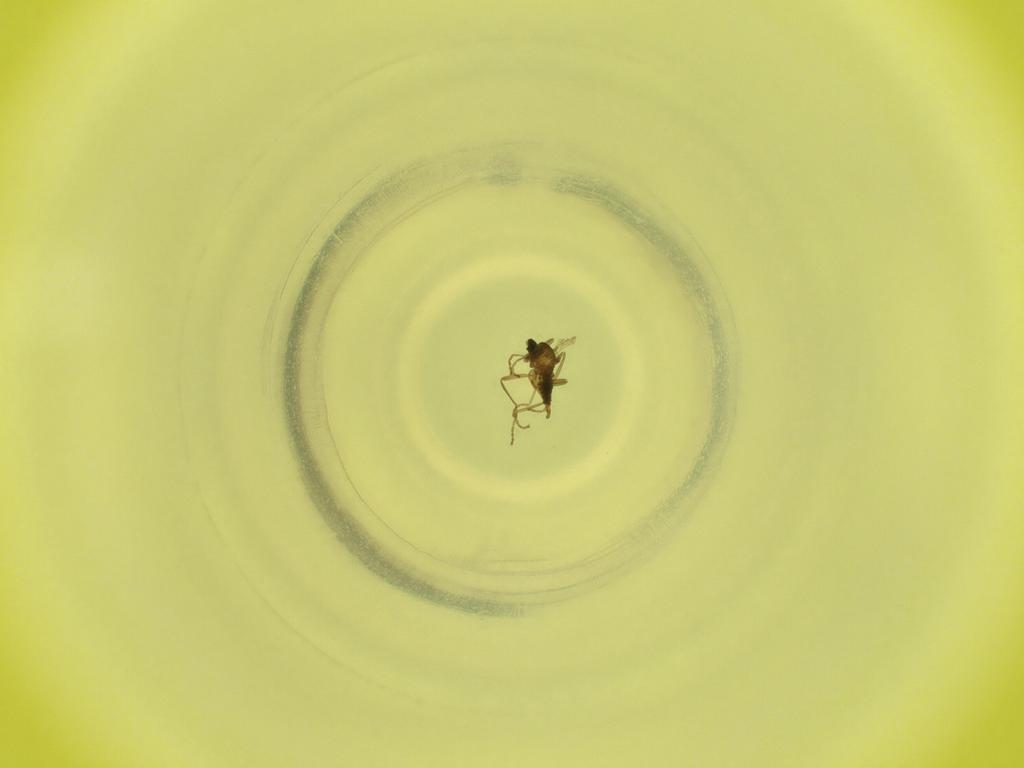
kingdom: Animalia
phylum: Arthropoda
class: Insecta
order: Diptera
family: Cecidomyiidae
